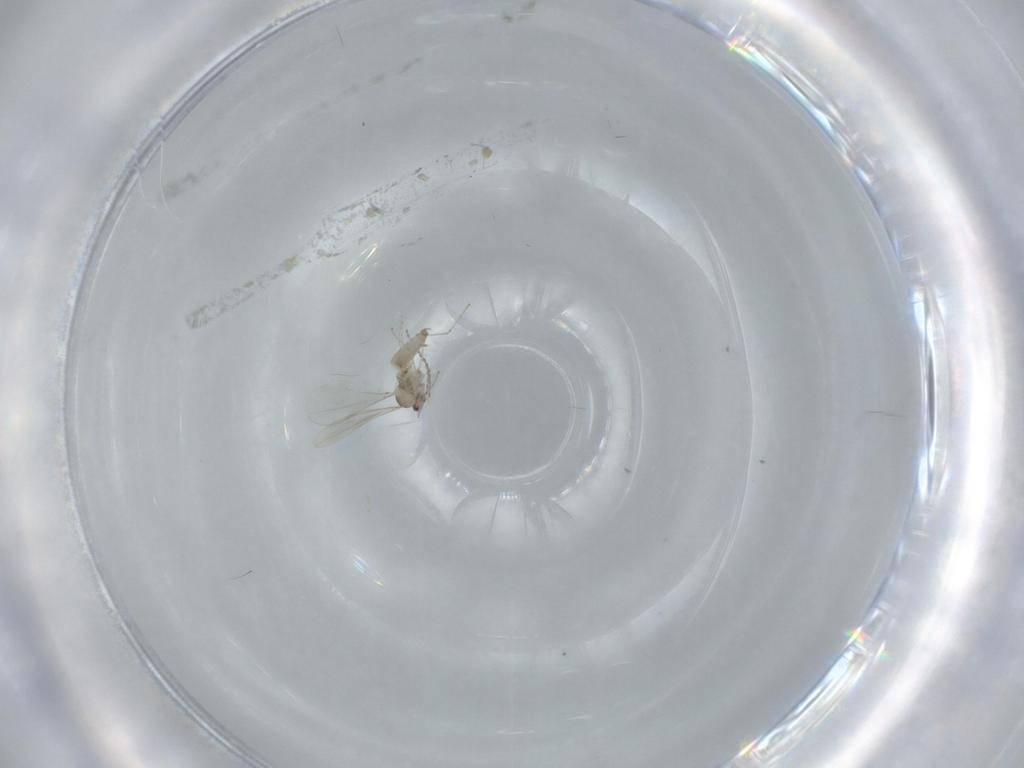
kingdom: Animalia
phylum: Arthropoda
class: Insecta
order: Diptera
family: Cecidomyiidae
